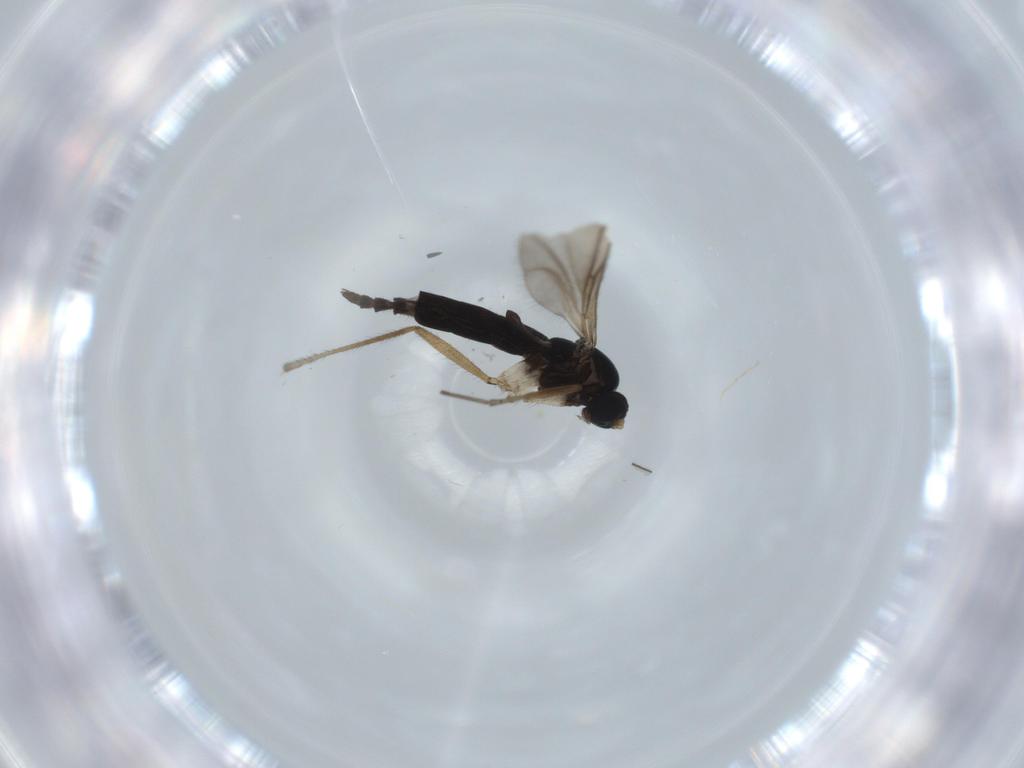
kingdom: Animalia
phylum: Arthropoda
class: Insecta
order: Diptera
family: Sciaridae
